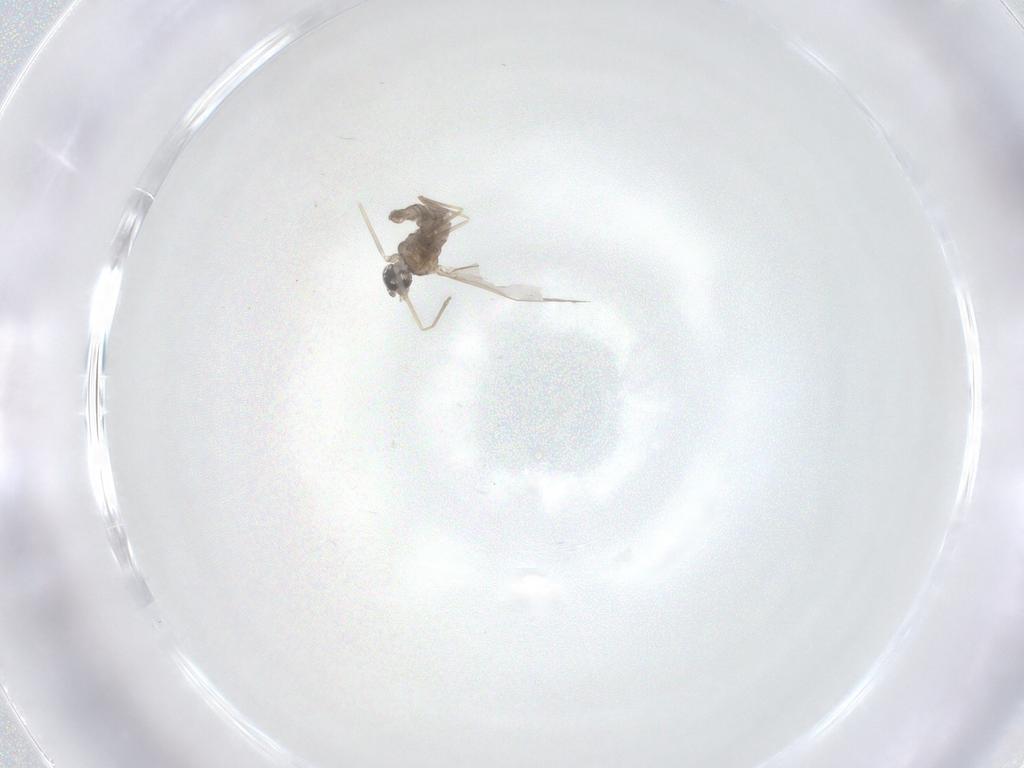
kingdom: Animalia
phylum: Arthropoda
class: Insecta
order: Diptera
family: Cecidomyiidae
